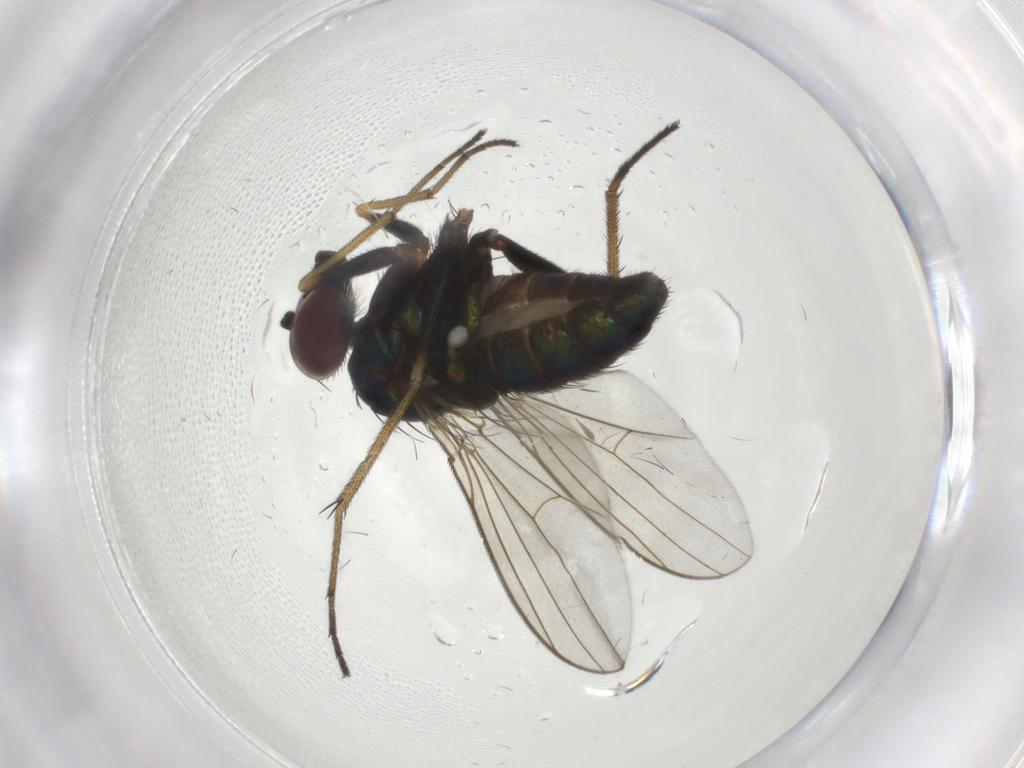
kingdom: Animalia
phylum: Arthropoda
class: Insecta
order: Diptera
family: Dolichopodidae
